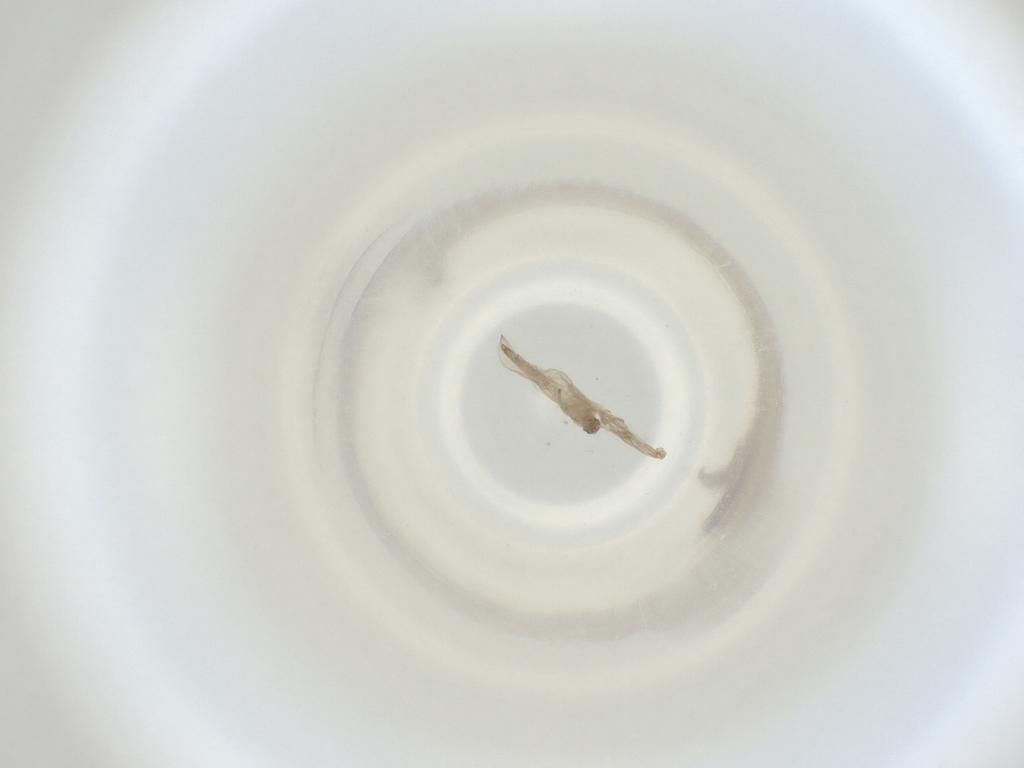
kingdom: Animalia
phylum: Arthropoda
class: Insecta
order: Diptera
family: Cecidomyiidae
